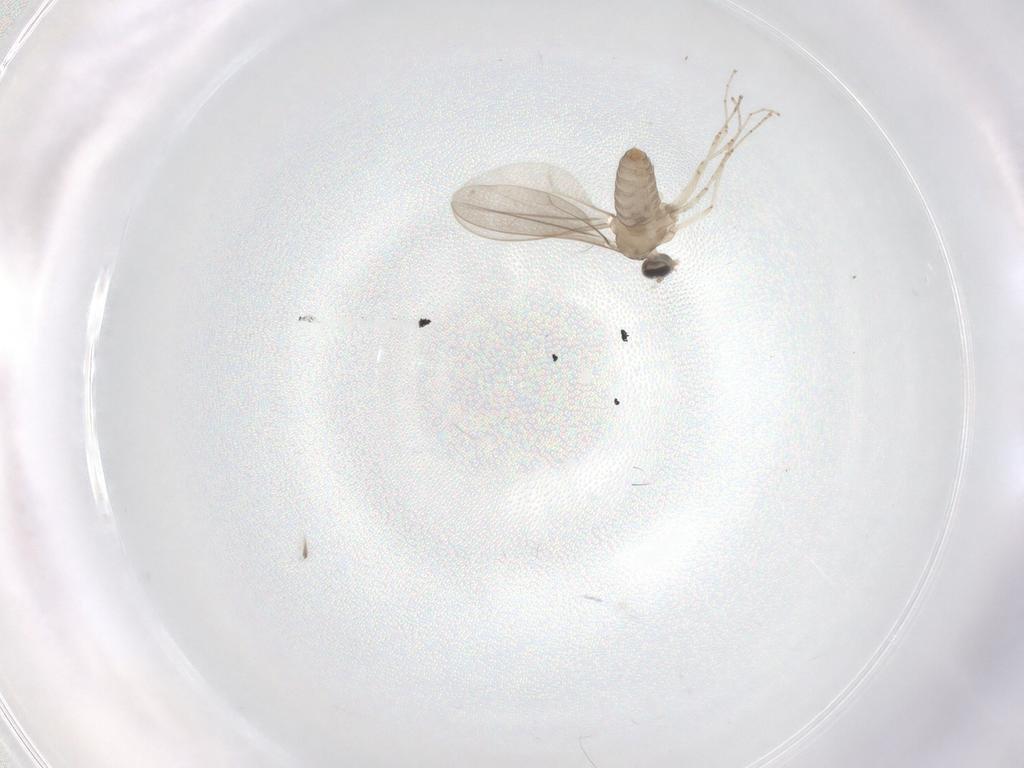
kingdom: Animalia
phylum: Arthropoda
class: Insecta
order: Diptera
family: Cecidomyiidae
